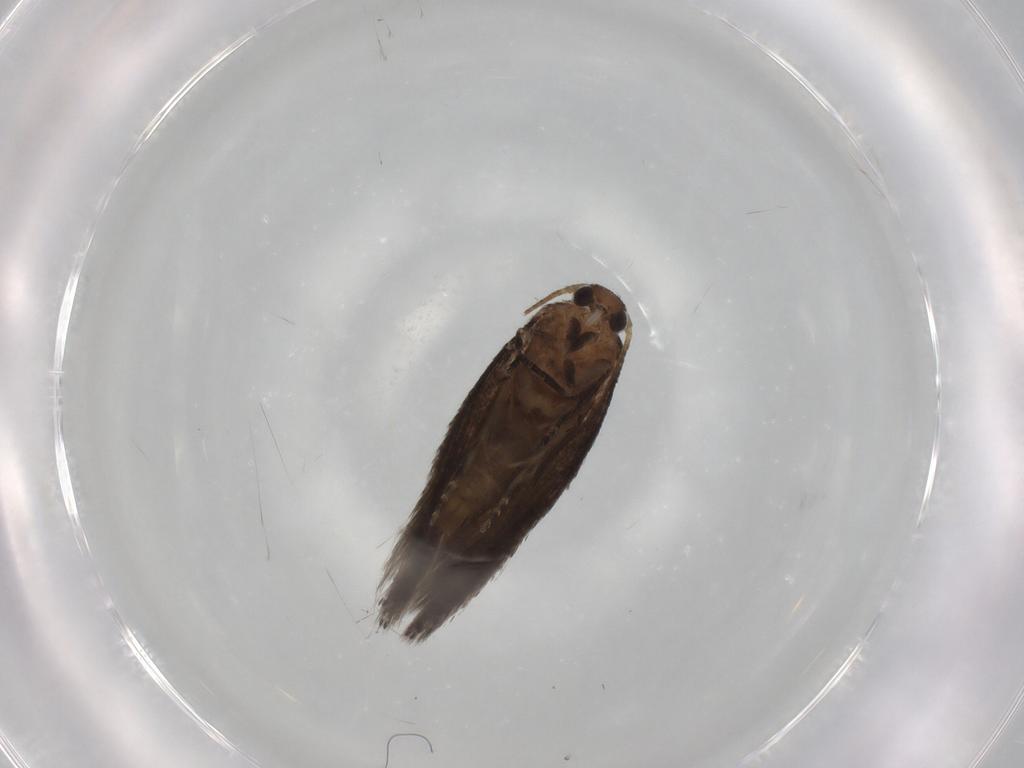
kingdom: Animalia
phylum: Arthropoda
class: Insecta
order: Lepidoptera
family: Elachistidae
